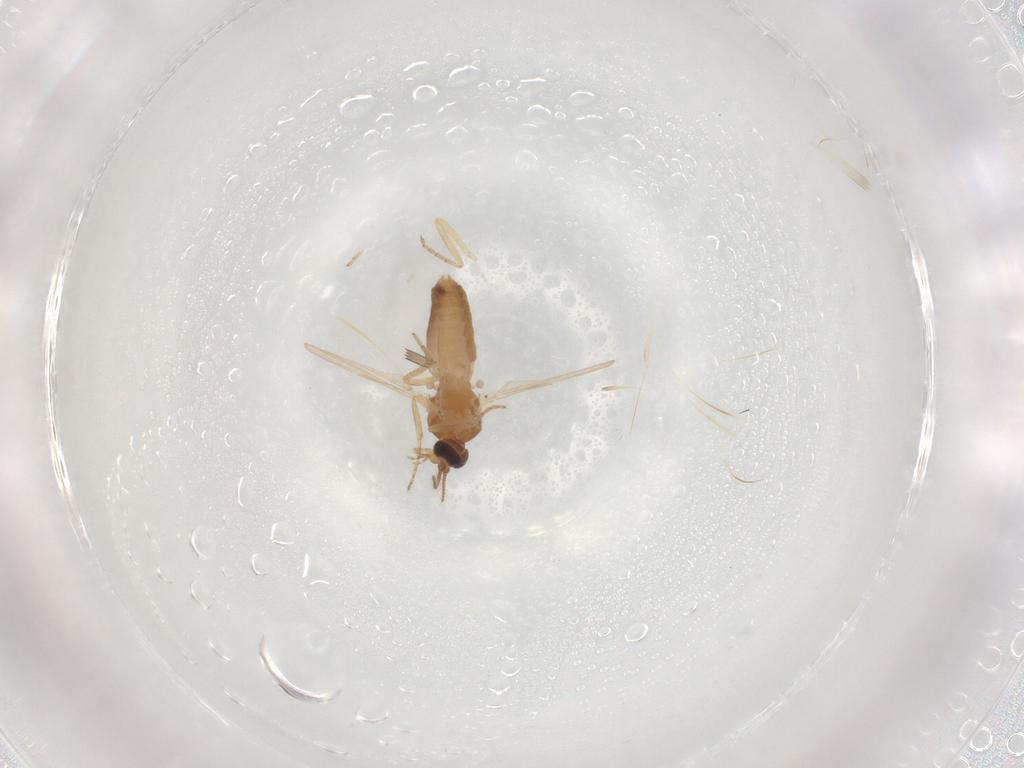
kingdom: Animalia
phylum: Arthropoda
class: Insecta
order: Diptera
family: Ceratopogonidae
